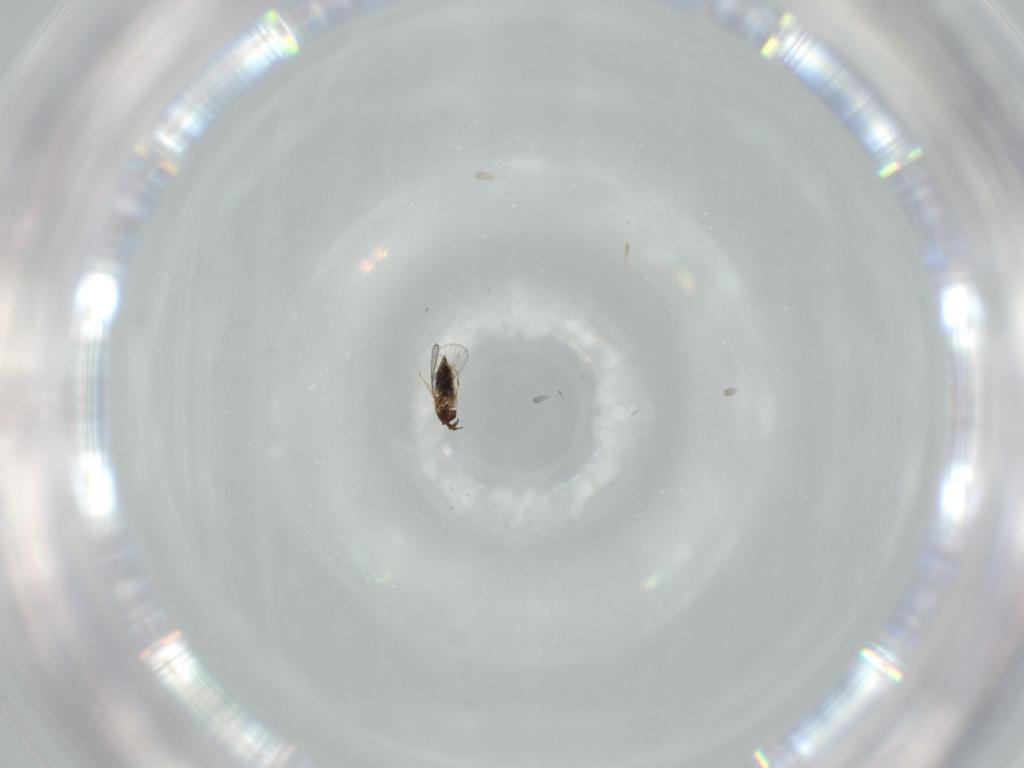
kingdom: Animalia
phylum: Arthropoda
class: Insecta
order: Hymenoptera
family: Trichogrammatidae
